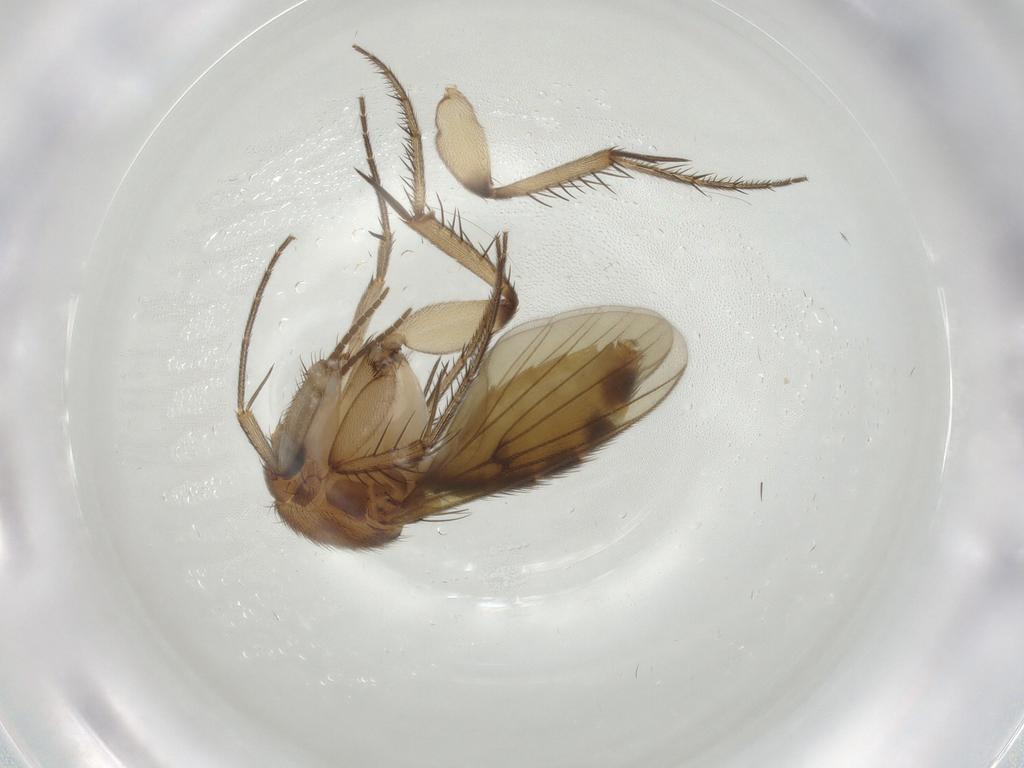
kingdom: Animalia
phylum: Arthropoda
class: Insecta
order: Diptera
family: Mycetophilidae
